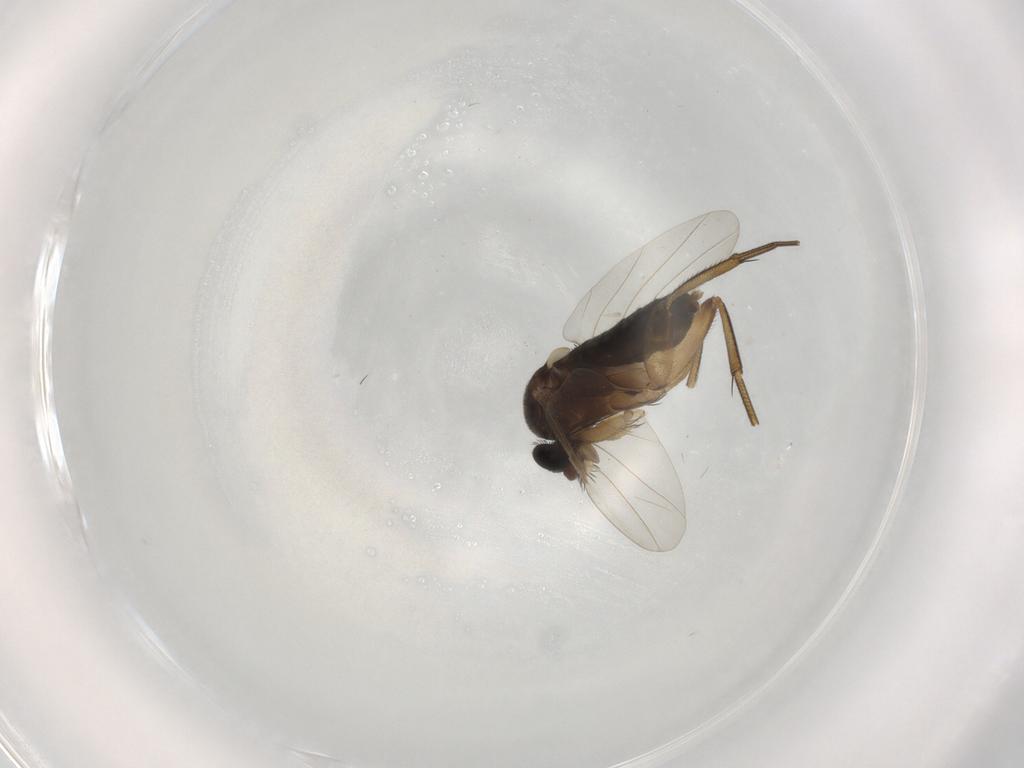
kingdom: Animalia
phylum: Arthropoda
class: Insecta
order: Diptera
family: Phoridae
